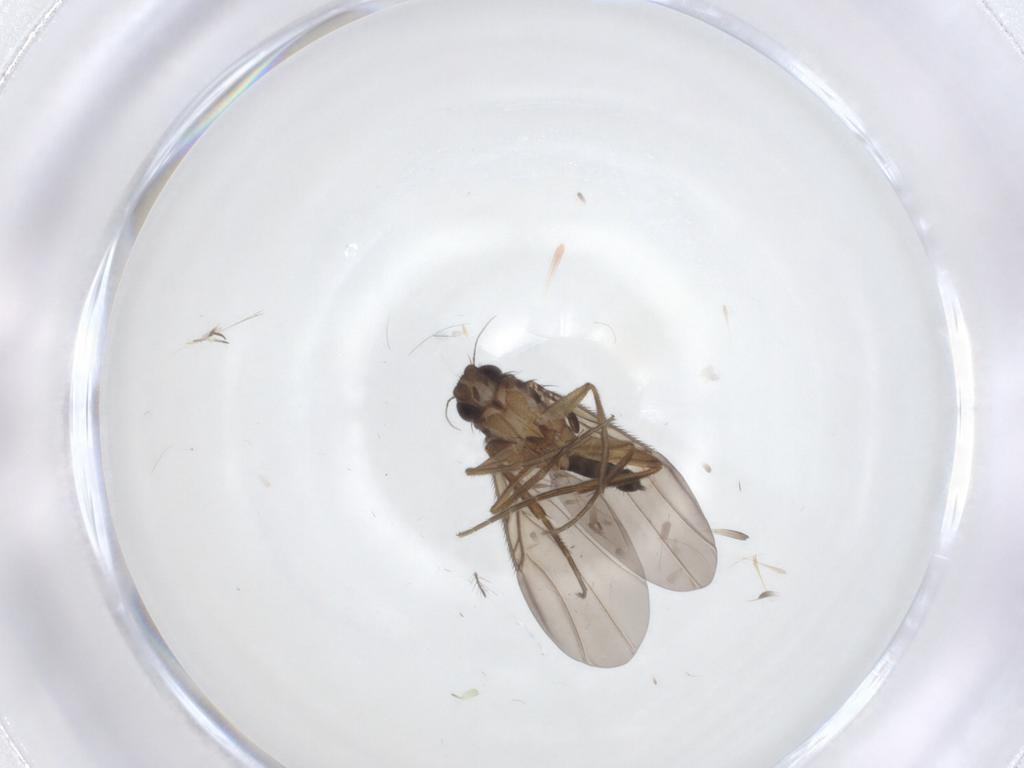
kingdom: Animalia
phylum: Arthropoda
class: Insecta
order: Diptera
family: Phoridae
